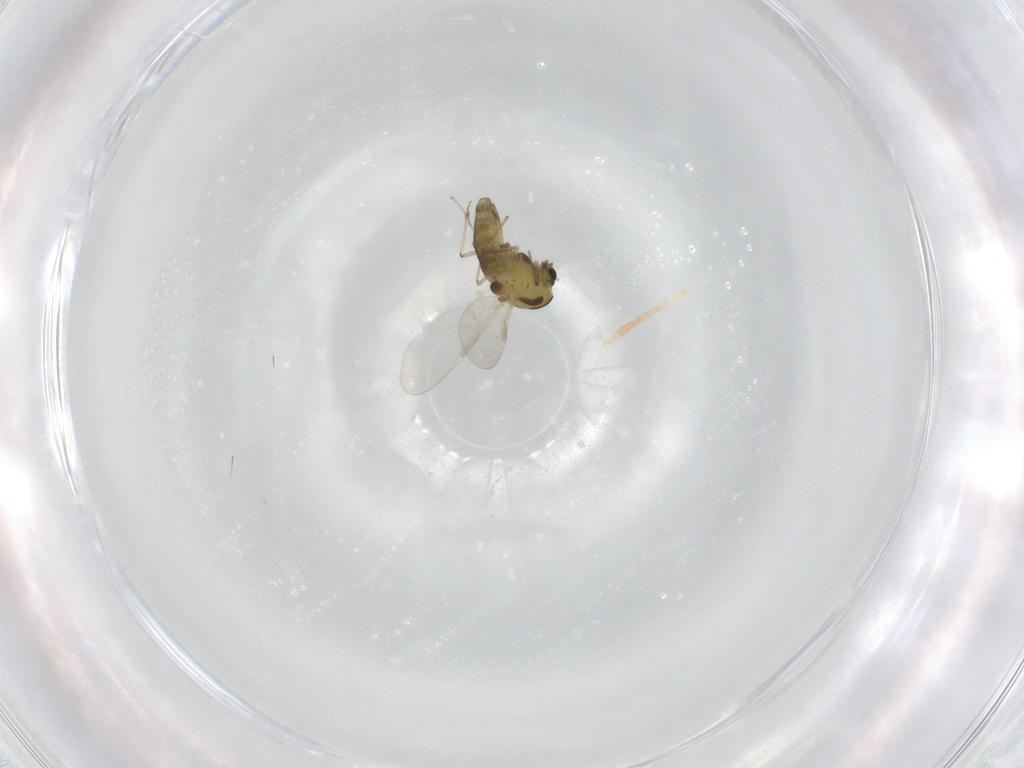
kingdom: Animalia
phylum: Arthropoda
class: Insecta
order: Diptera
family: Chironomidae
